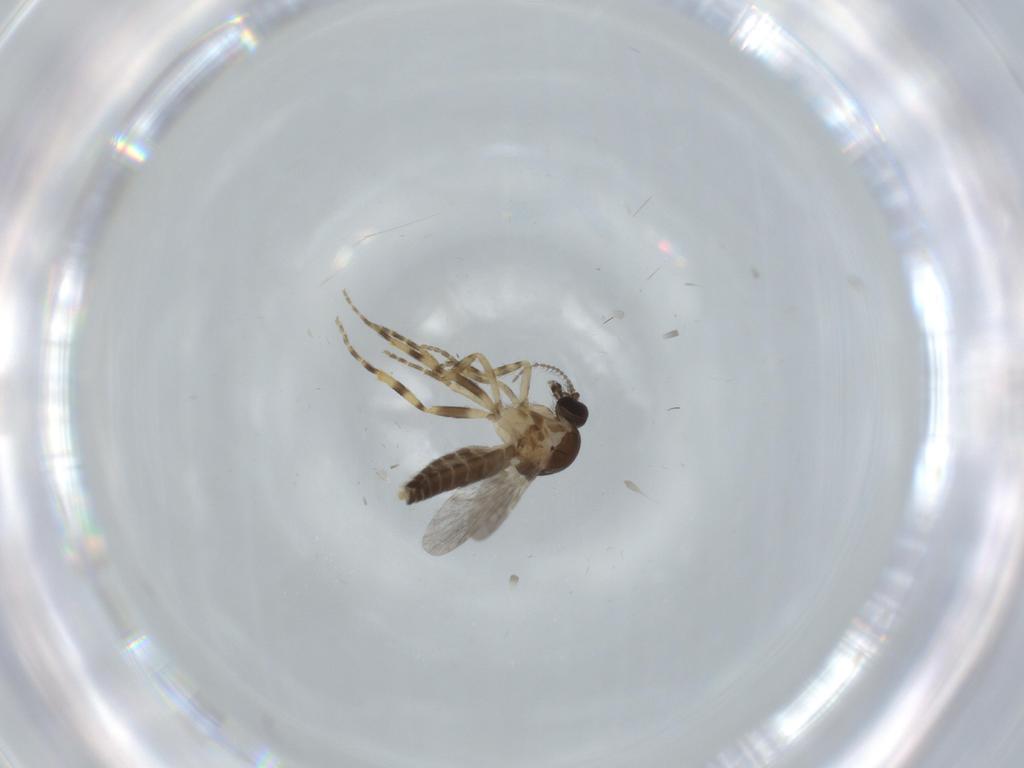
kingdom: Animalia
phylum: Arthropoda
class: Insecta
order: Diptera
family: Ceratopogonidae
